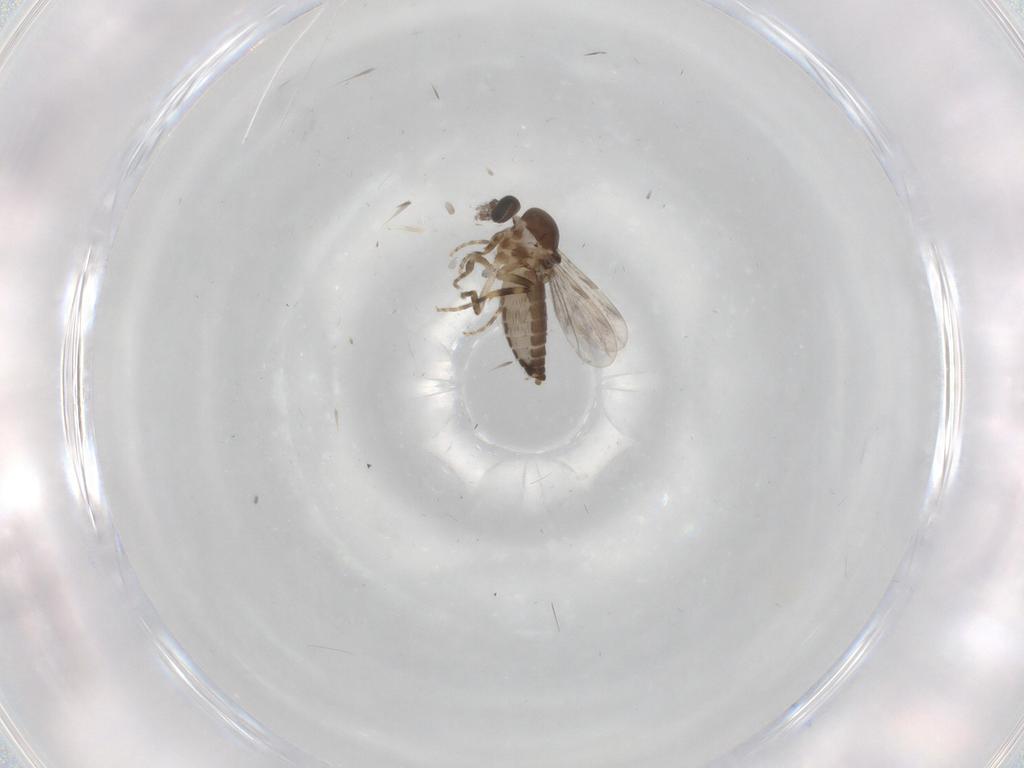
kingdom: Animalia
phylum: Arthropoda
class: Insecta
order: Diptera
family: Ceratopogonidae
